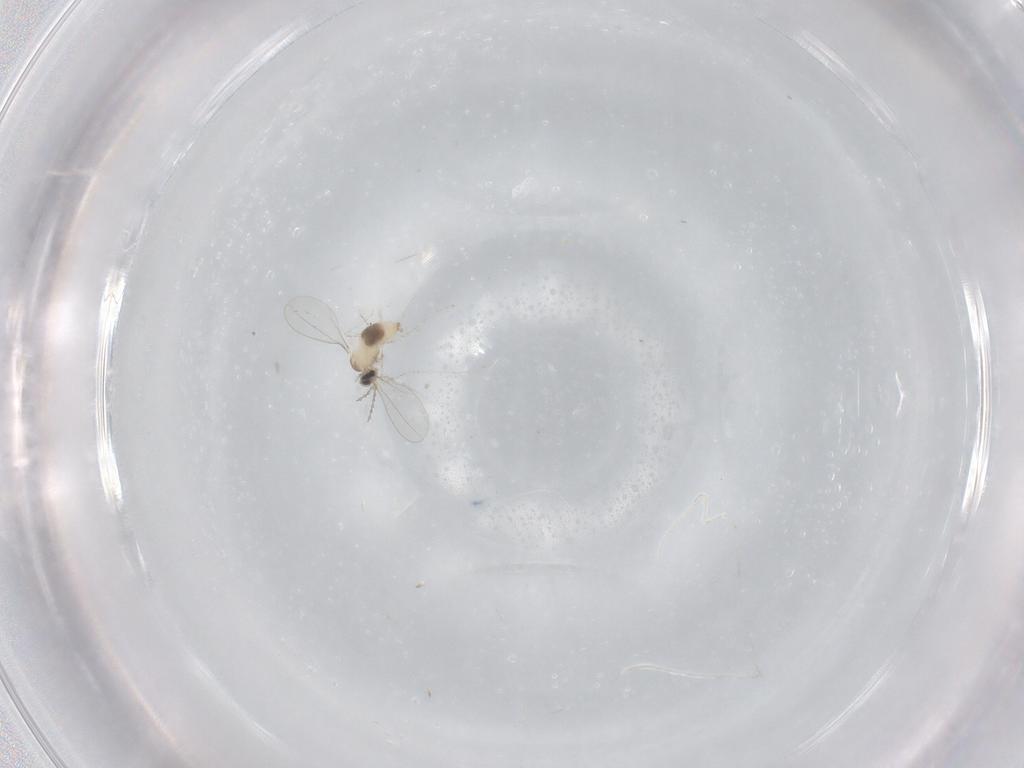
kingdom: Animalia
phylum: Arthropoda
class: Insecta
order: Diptera
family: Cecidomyiidae
